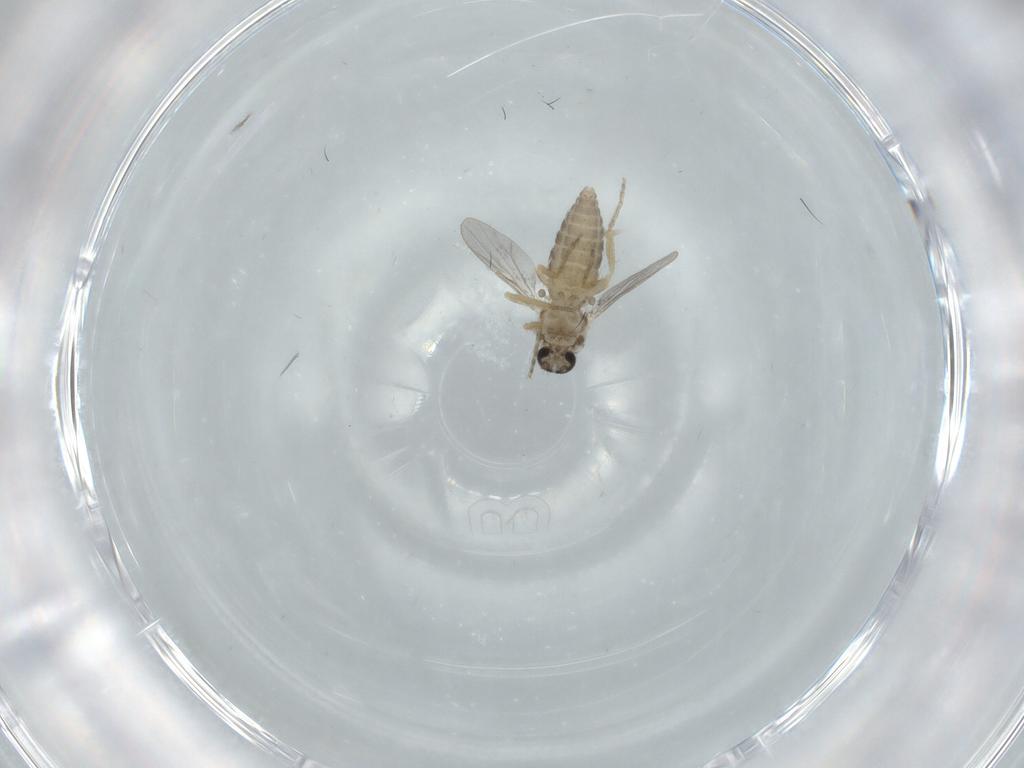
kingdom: Animalia
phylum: Arthropoda
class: Insecta
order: Diptera
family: Ceratopogonidae
